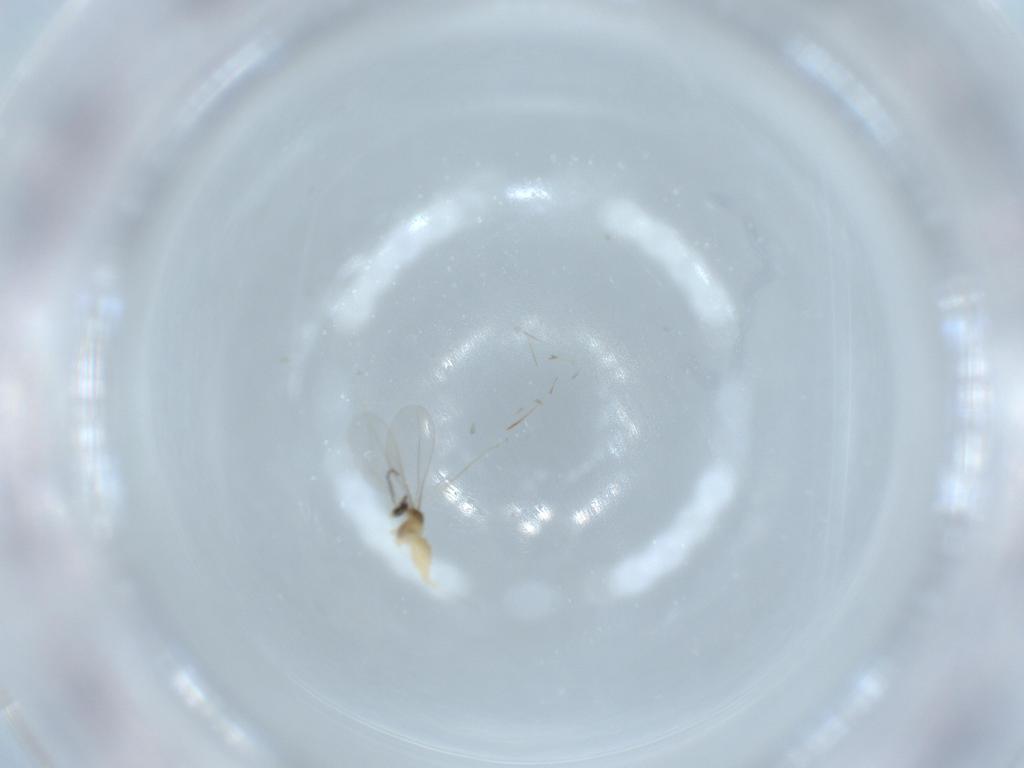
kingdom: Animalia
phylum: Arthropoda
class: Insecta
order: Diptera
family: Cecidomyiidae
